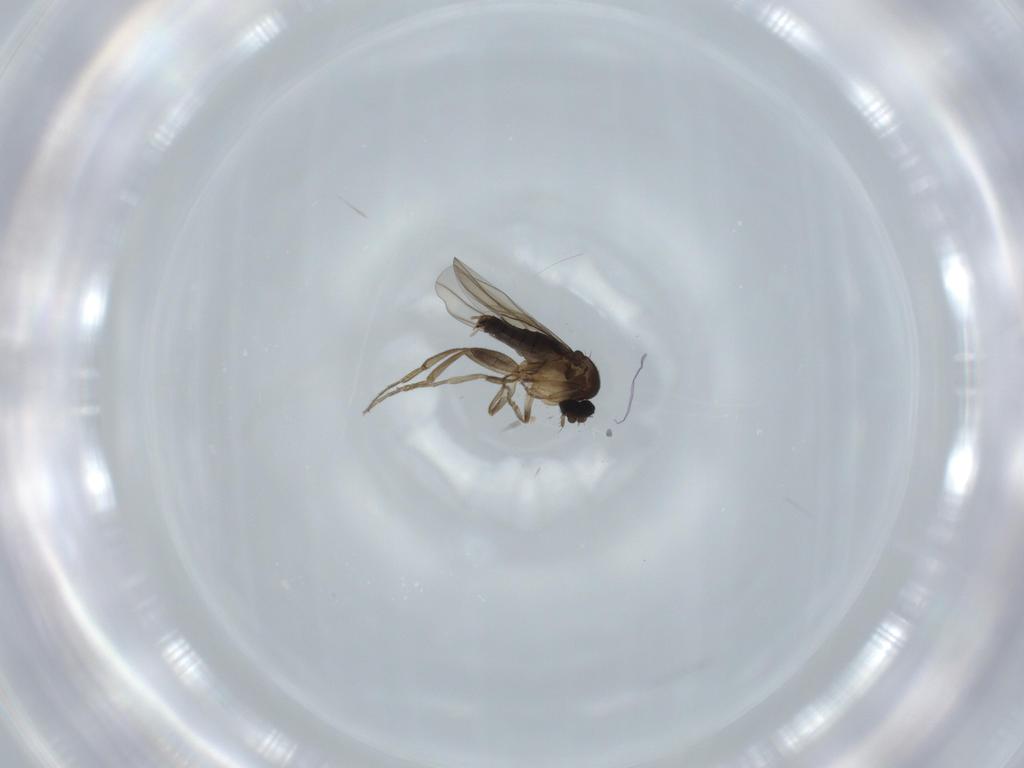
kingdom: Animalia
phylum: Arthropoda
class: Insecta
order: Diptera
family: Phoridae
